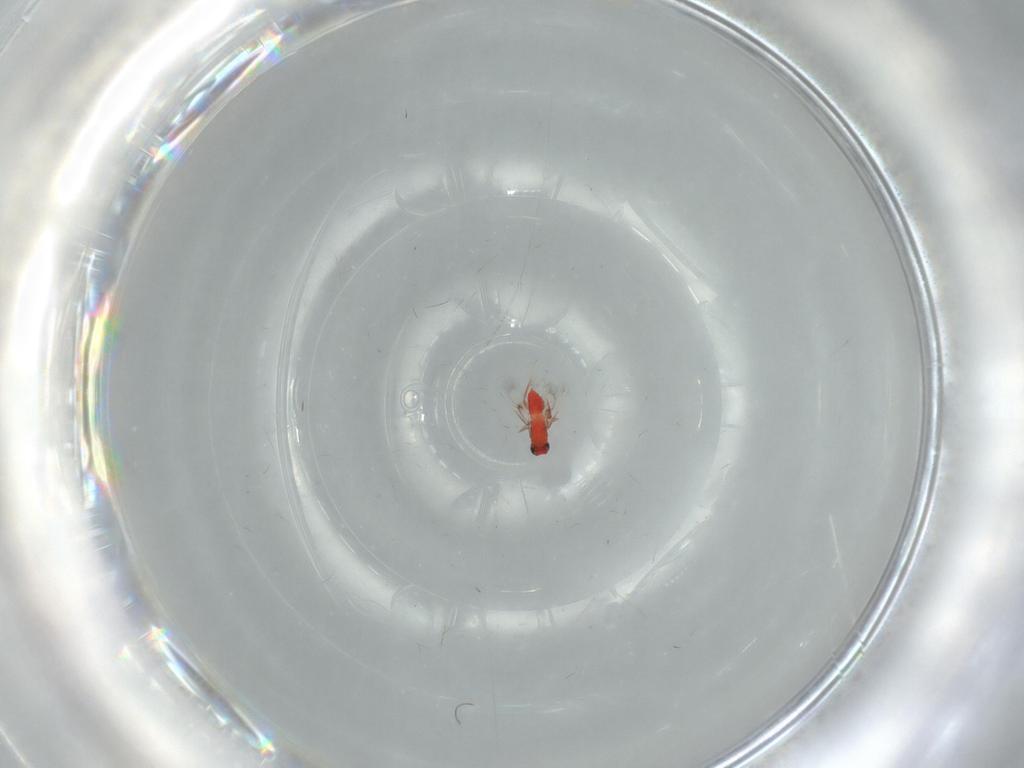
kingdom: Animalia
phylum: Arthropoda
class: Insecta
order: Hymenoptera
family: Trichogrammatidae
